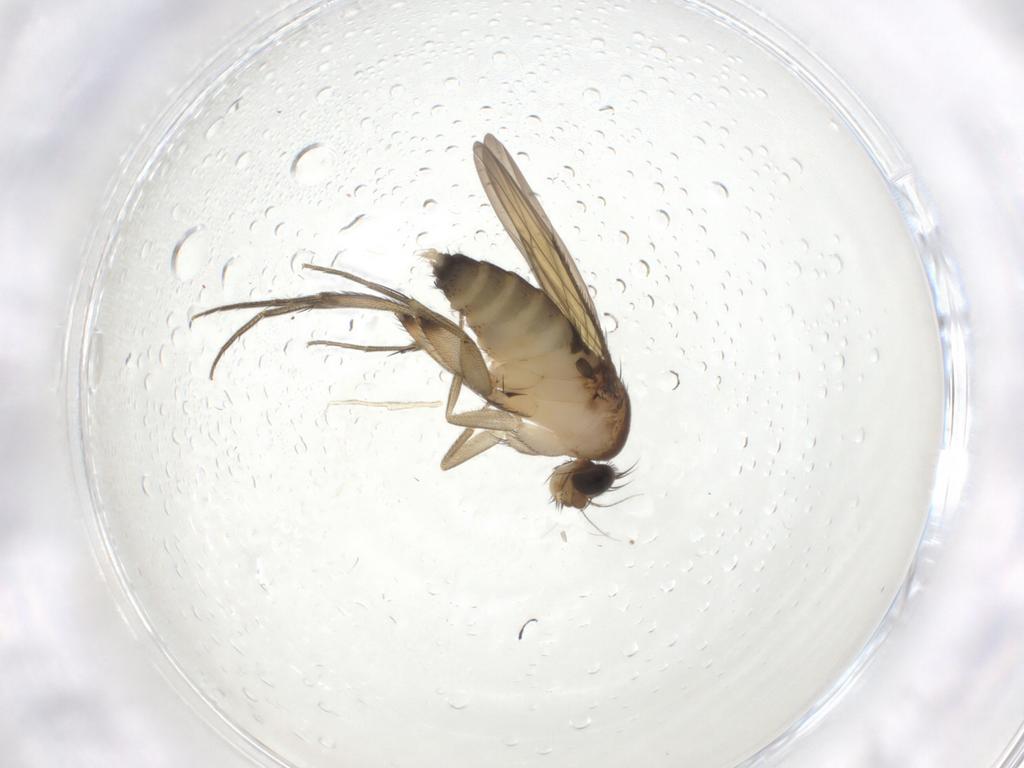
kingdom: Animalia
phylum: Arthropoda
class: Insecta
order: Diptera
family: Phoridae
